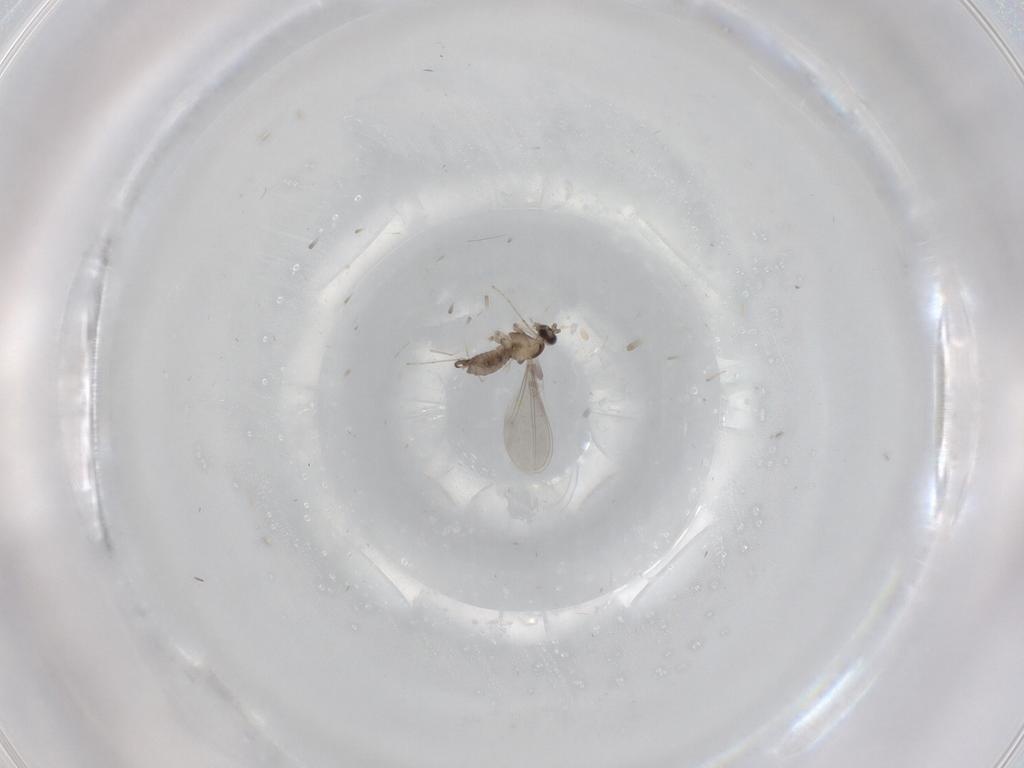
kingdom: Animalia
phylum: Arthropoda
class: Insecta
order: Diptera
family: Cecidomyiidae
